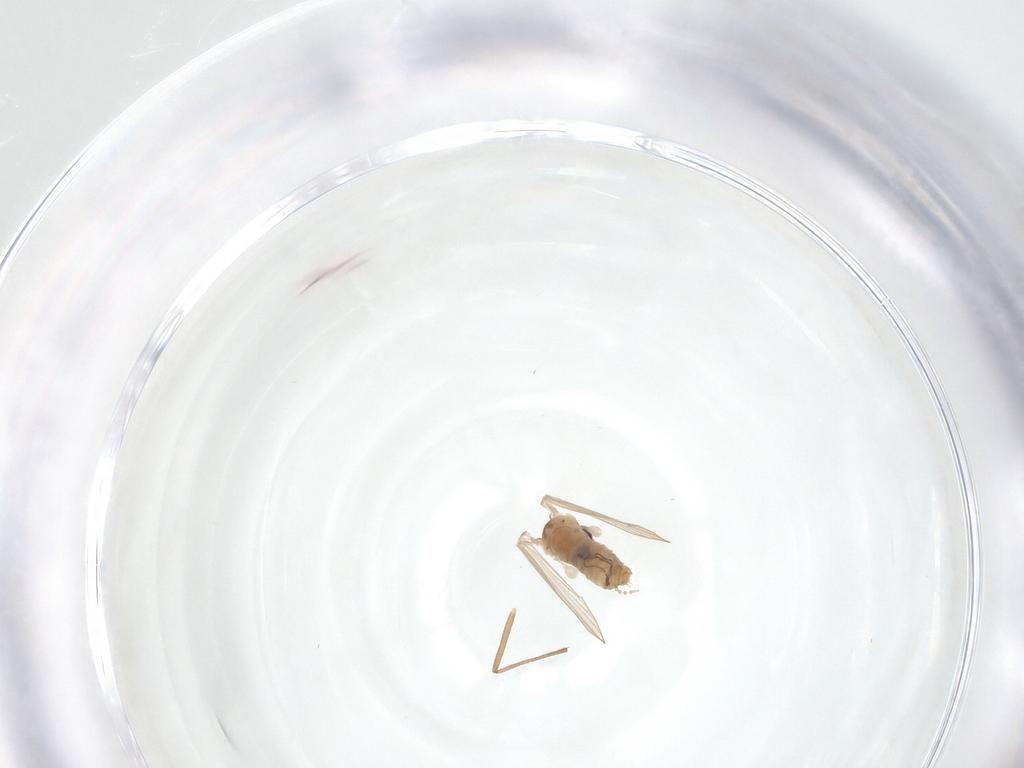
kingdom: Animalia
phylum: Arthropoda
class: Insecta
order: Diptera
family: Psychodidae
